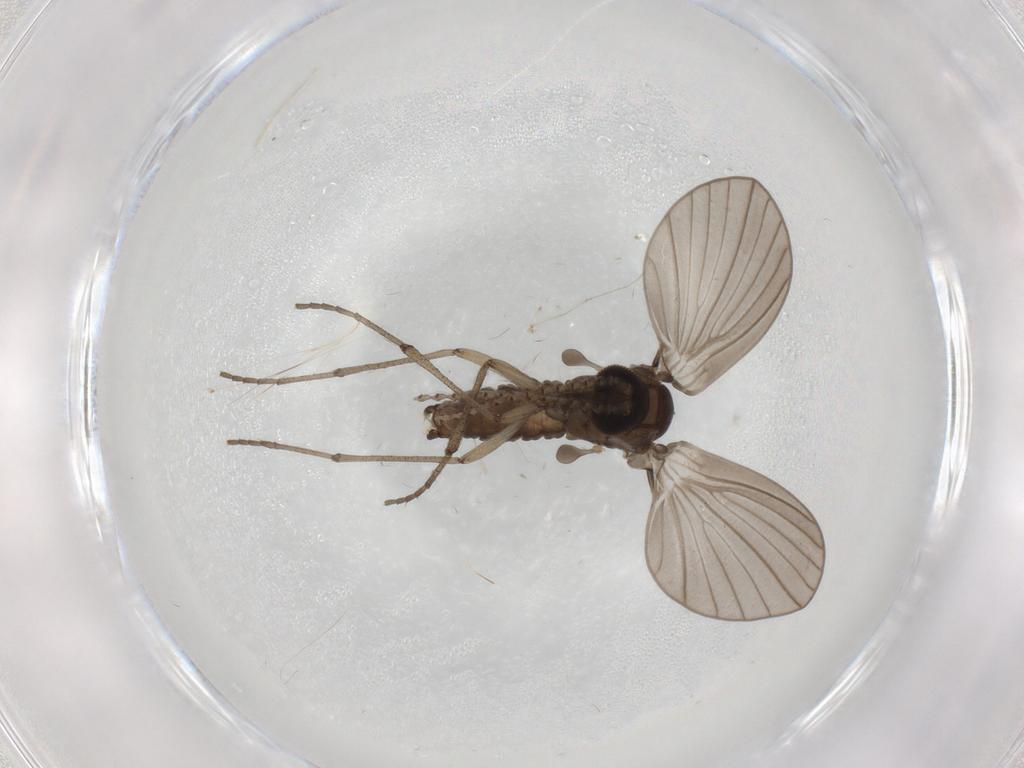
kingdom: Animalia
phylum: Arthropoda
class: Insecta
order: Diptera
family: Psychodidae
